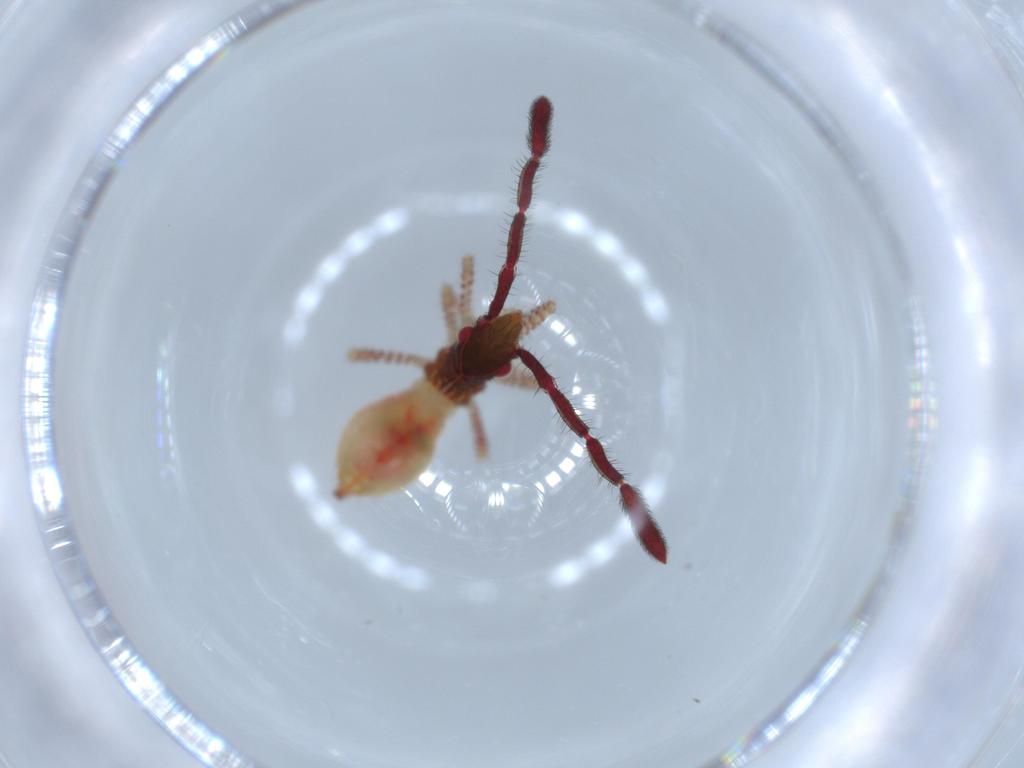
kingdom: Animalia
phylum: Arthropoda
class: Insecta
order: Hemiptera
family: Alydidae
